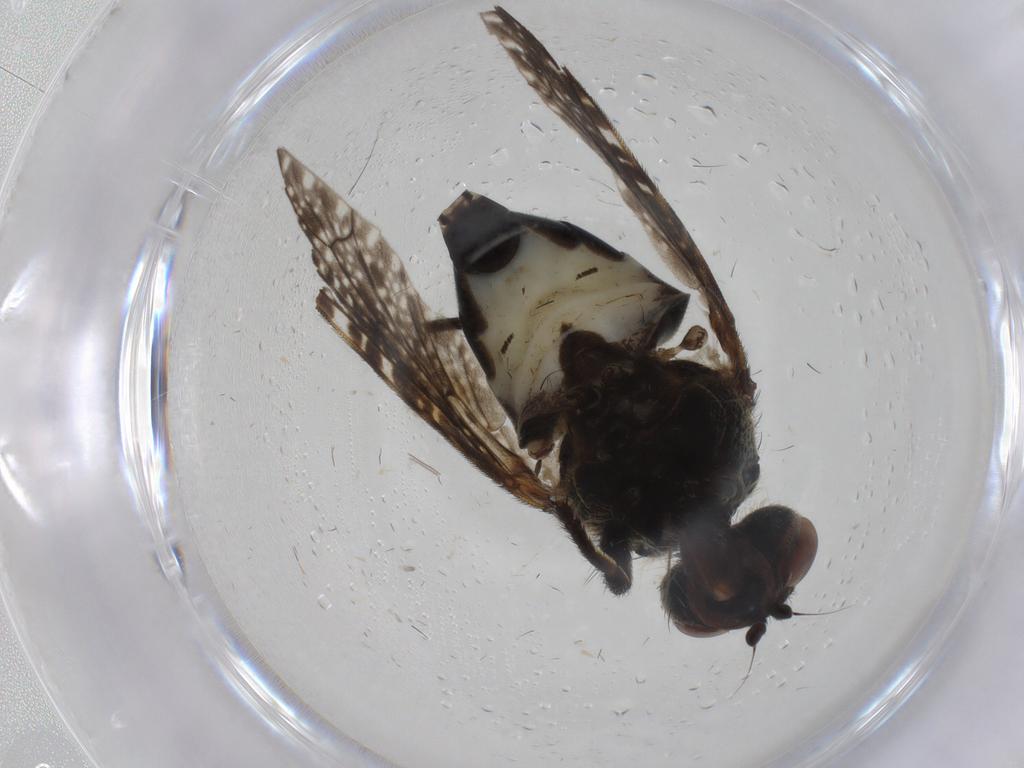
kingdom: Animalia
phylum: Arthropoda
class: Insecta
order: Diptera
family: Platystomatidae
